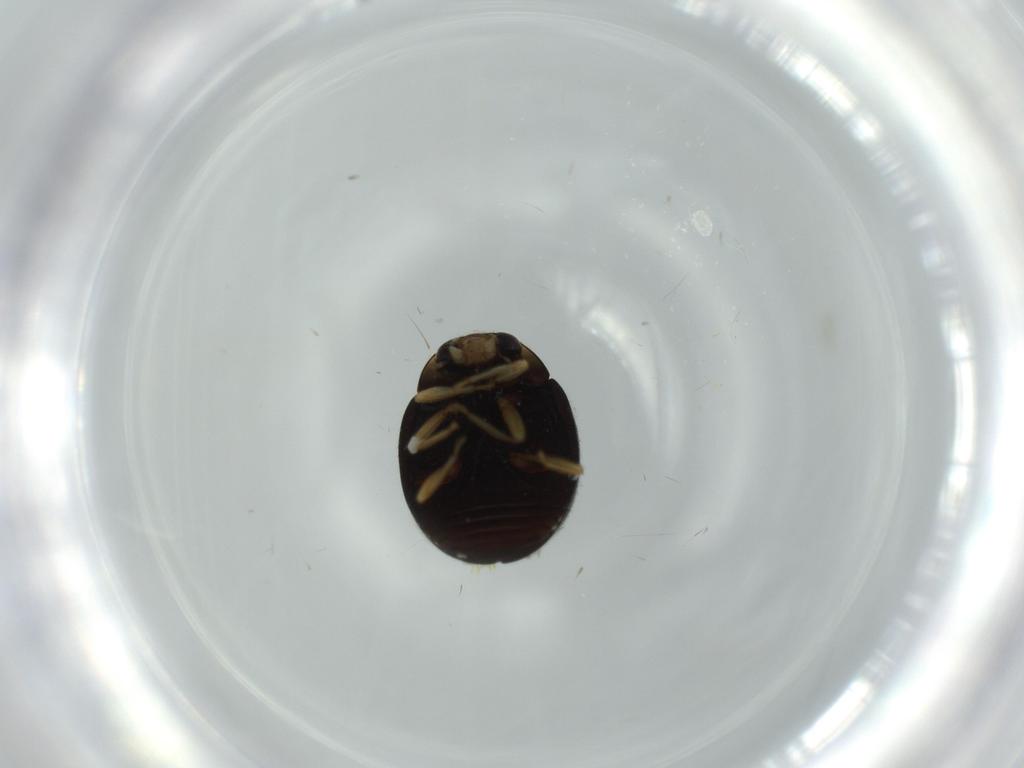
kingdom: Animalia
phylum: Arthropoda
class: Insecta
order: Coleoptera
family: Coccinellidae
